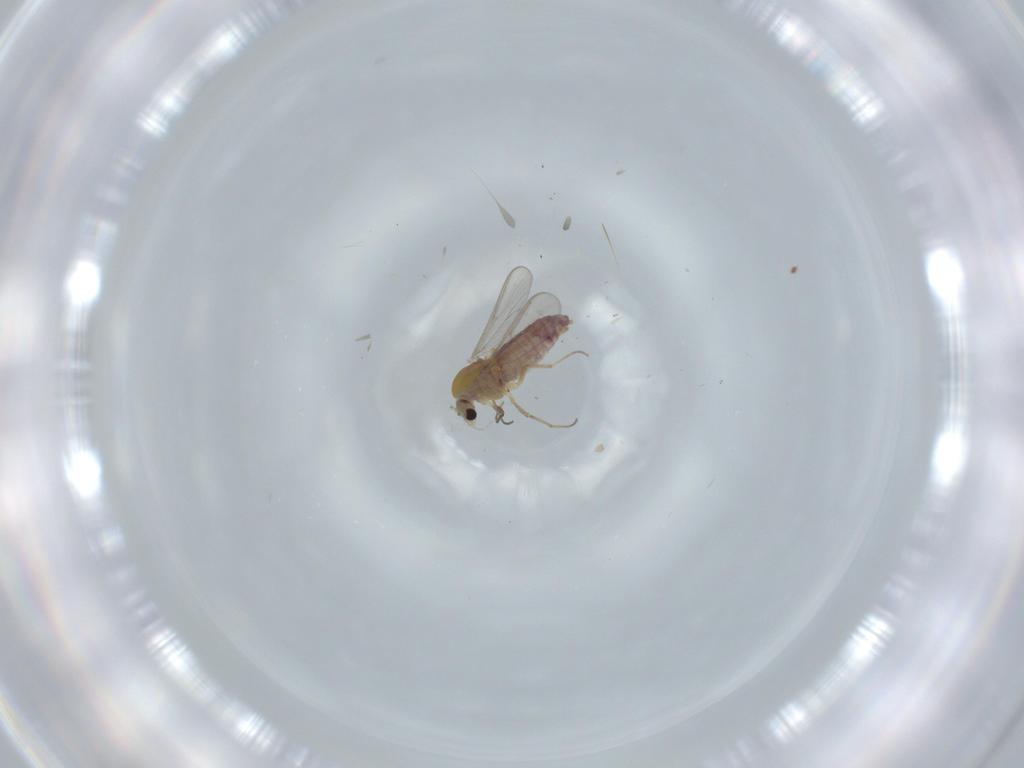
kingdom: Animalia
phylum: Arthropoda
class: Insecta
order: Diptera
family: Chironomidae
